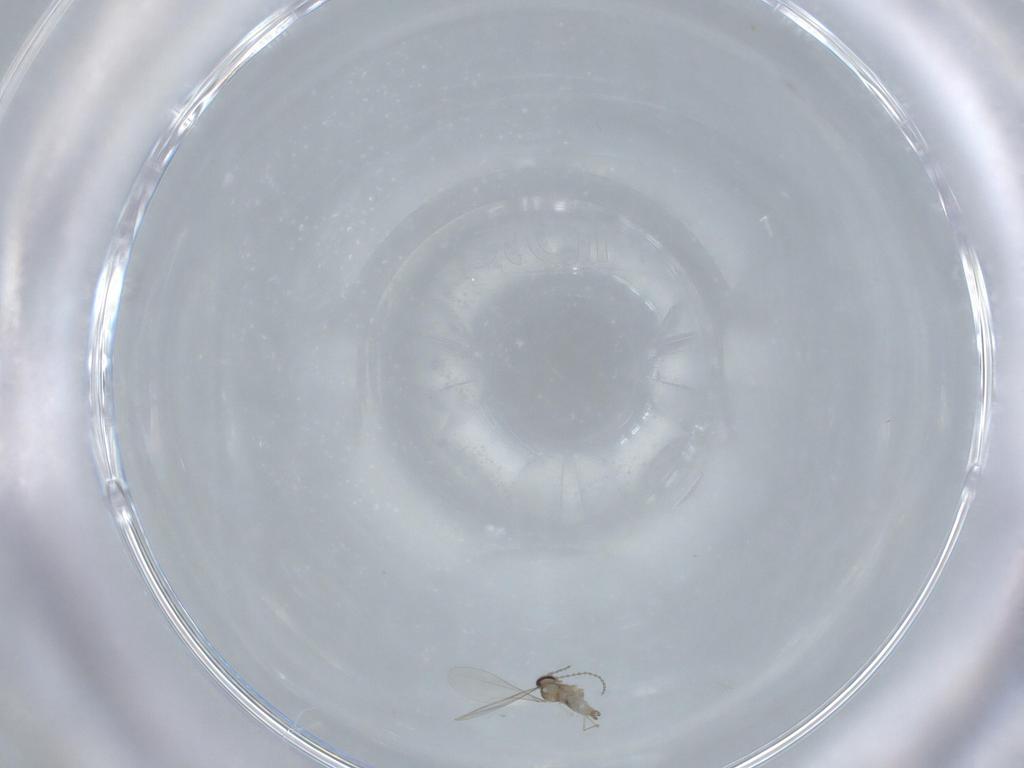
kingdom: Animalia
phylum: Arthropoda
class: Insecta
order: Diptera
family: Cecidomyiidae
